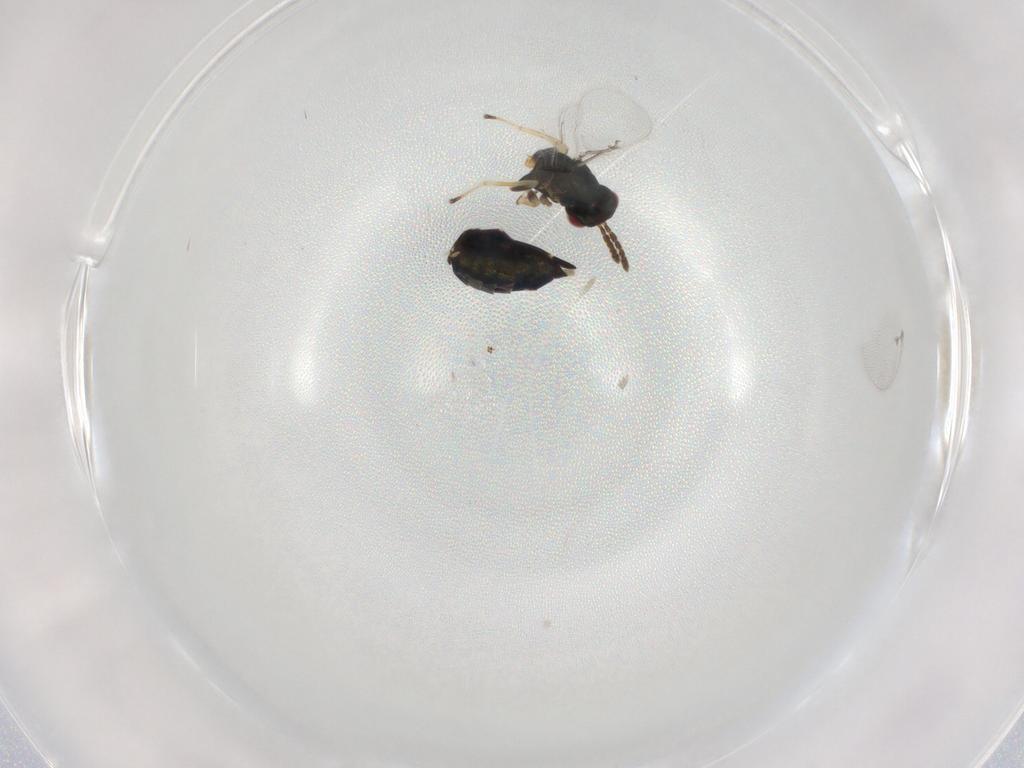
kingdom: Animalia
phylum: Arthropoda
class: Insecta
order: Hymenoptera
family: Eulophidae
